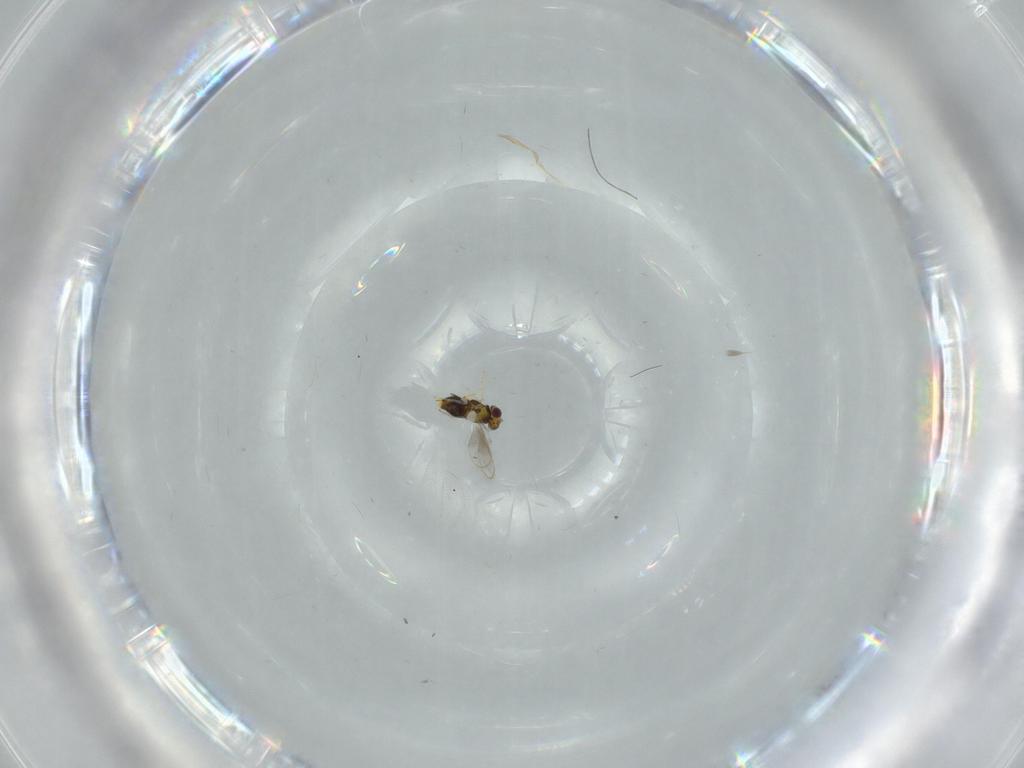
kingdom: Animalia
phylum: Arthropoda
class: Insecta
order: Hymenoptera
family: Aphelinidae
